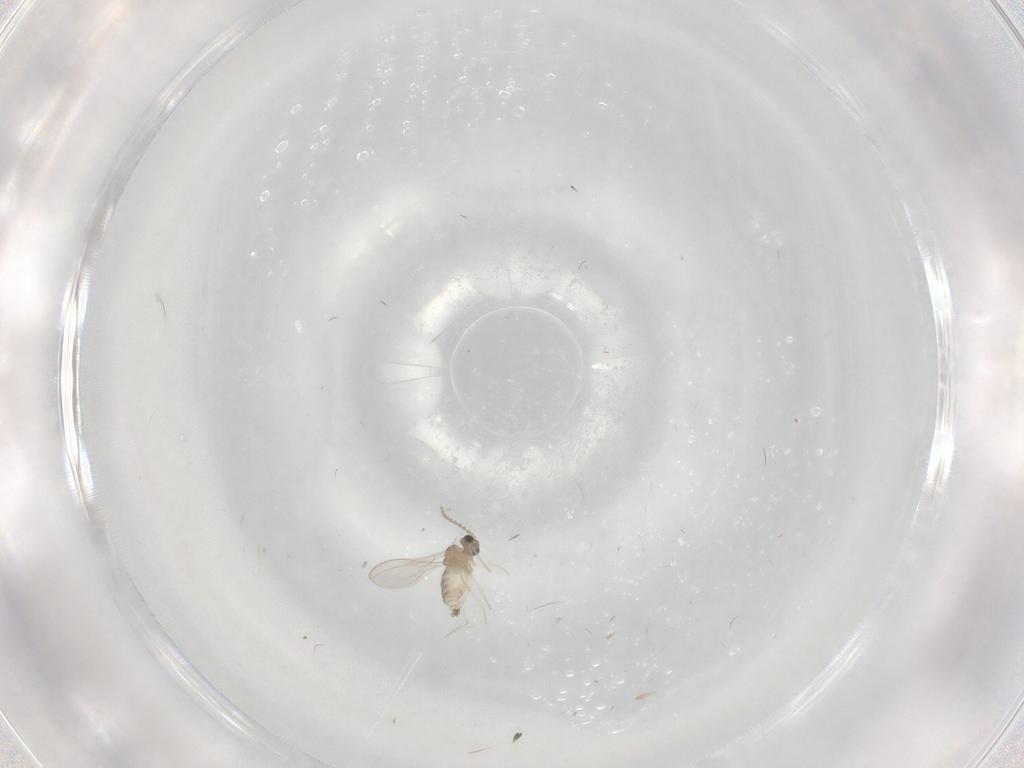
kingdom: Animalia
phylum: Arthropoda
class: Insecta
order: Diptera
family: Cecidomyiidae
